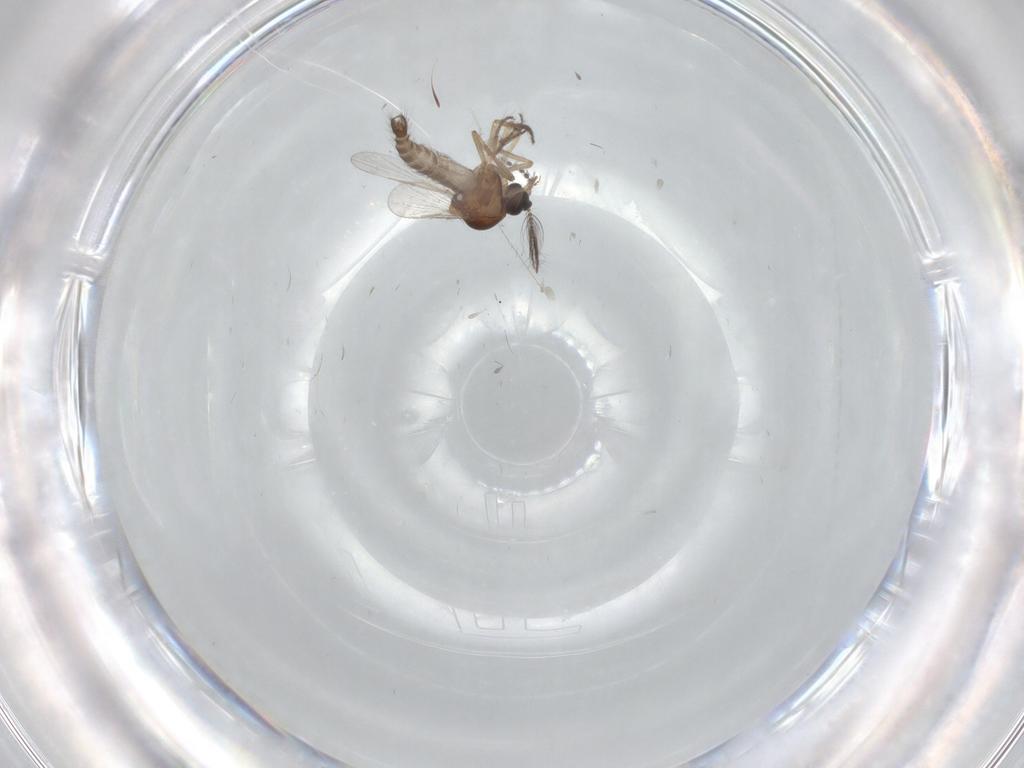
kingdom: Animalia
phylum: Arthropoda
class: Insecta
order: Diptera
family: Sciaridae
